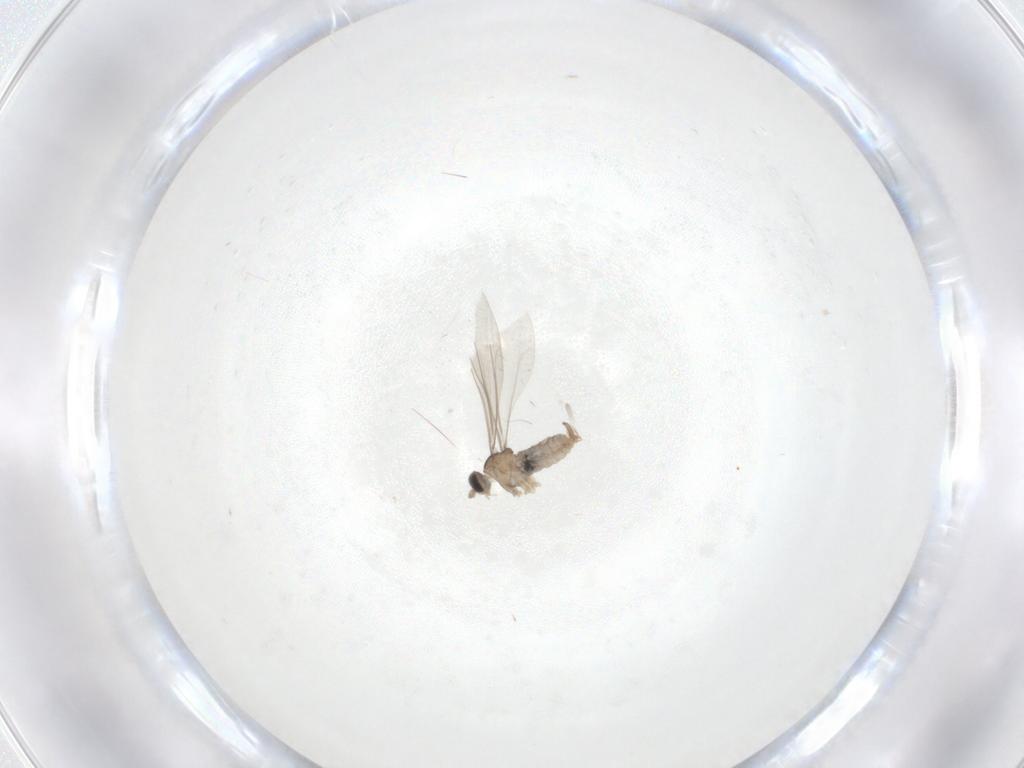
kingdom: Animalia
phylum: Arthropoda
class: Insecta
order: Diptera
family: Cecidomyiidae
